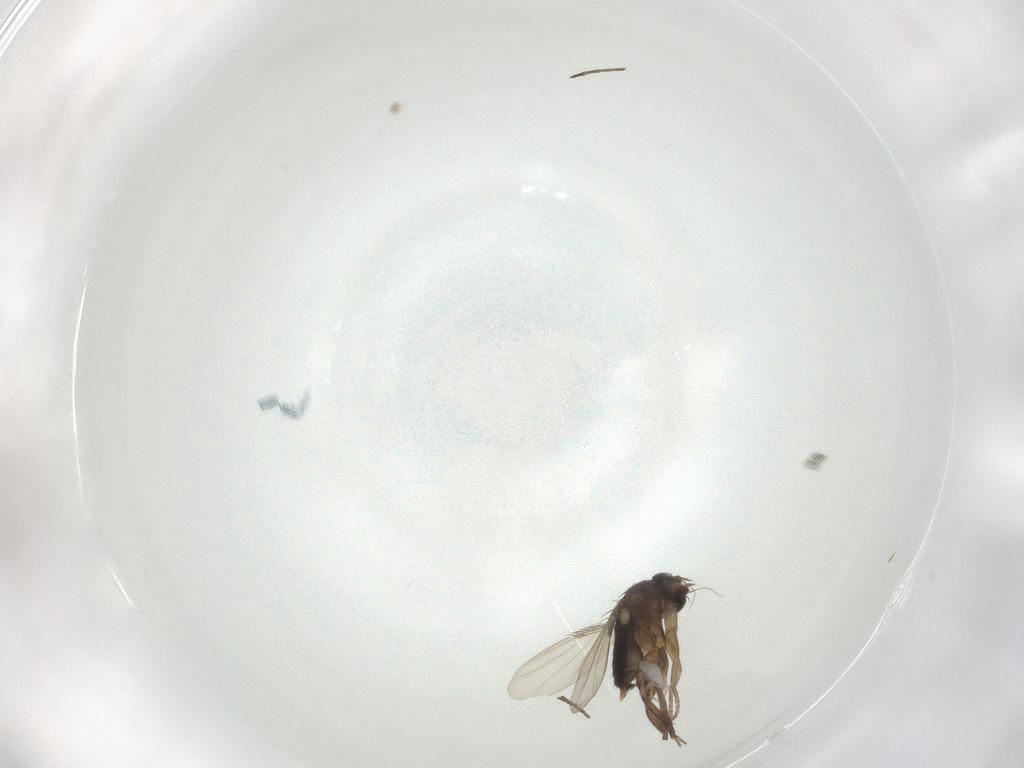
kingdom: Animalia
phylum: Arthropoda
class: Insecta
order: Diptera
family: Phoridae
